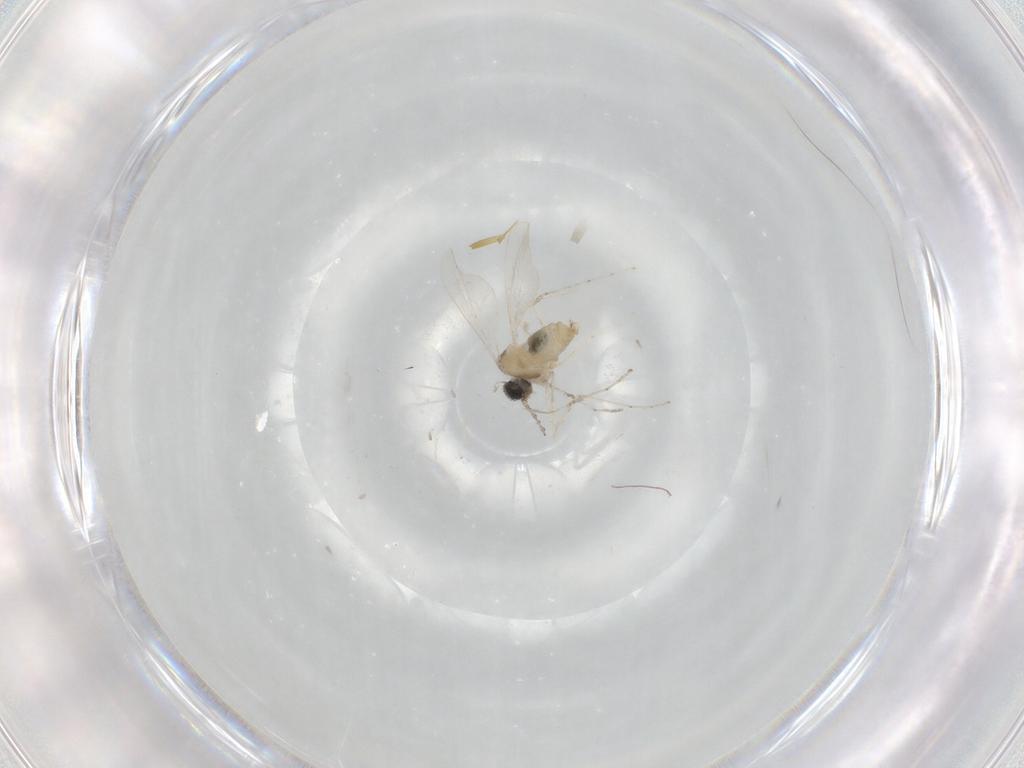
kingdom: Animalia
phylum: Arthropoda
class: Insecta
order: Diptera
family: Cecidomyiidae
